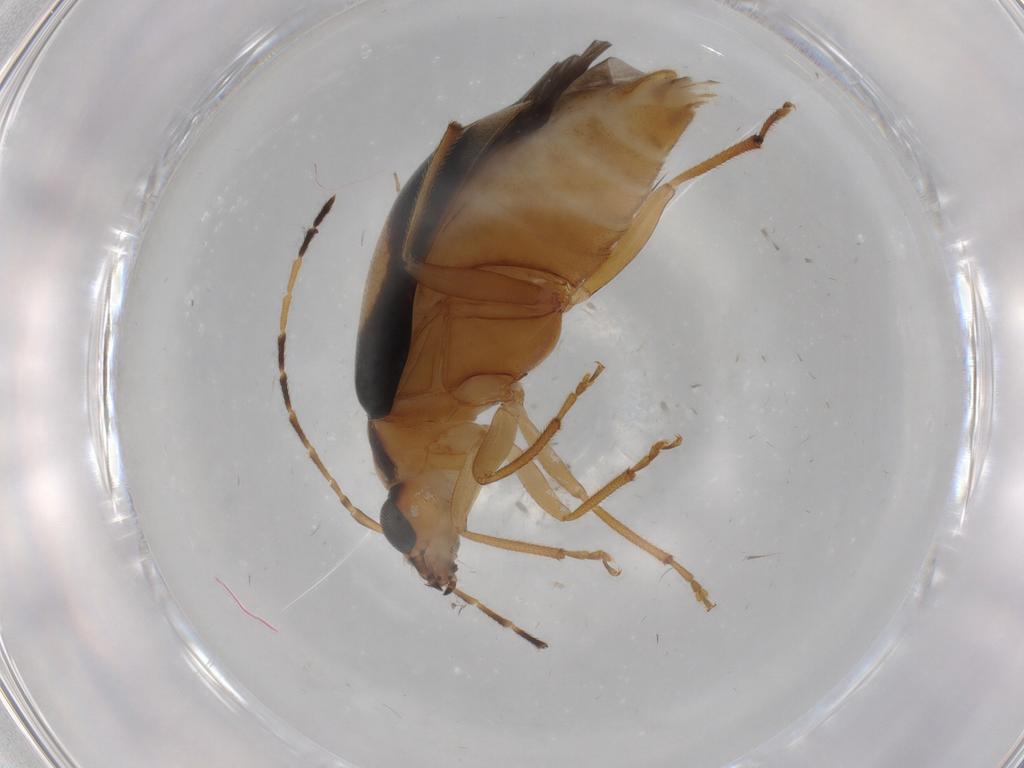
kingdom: Animalia
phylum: Arthropoda
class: Insecta
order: Coleoptera
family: Chrysomelidae
